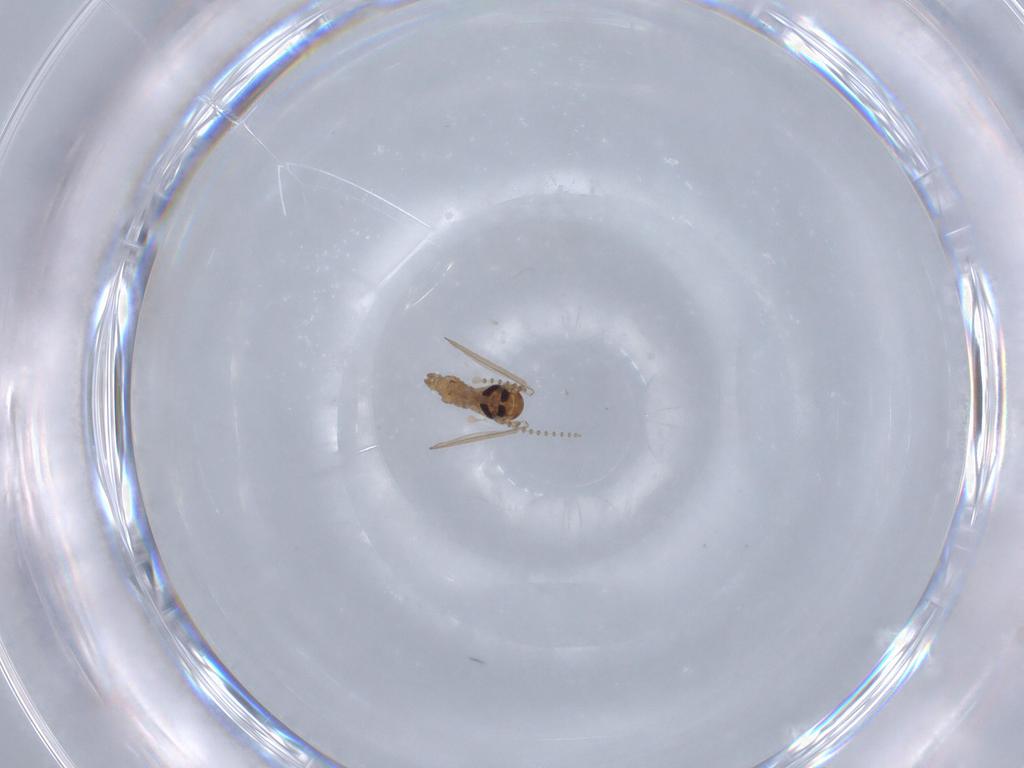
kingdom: Animalia
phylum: Arthropoda
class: Insecta
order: Diptera
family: Psychodidae
